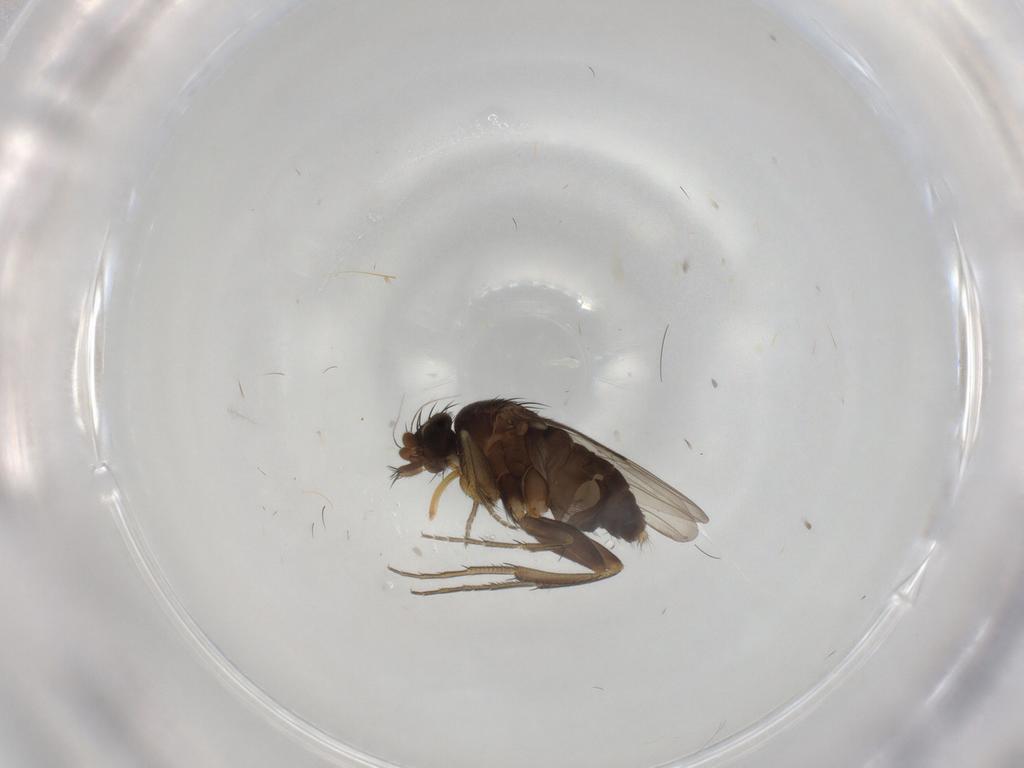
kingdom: Animalia
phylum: Arthropoda
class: Insecta
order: Diptera
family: Phoridae
